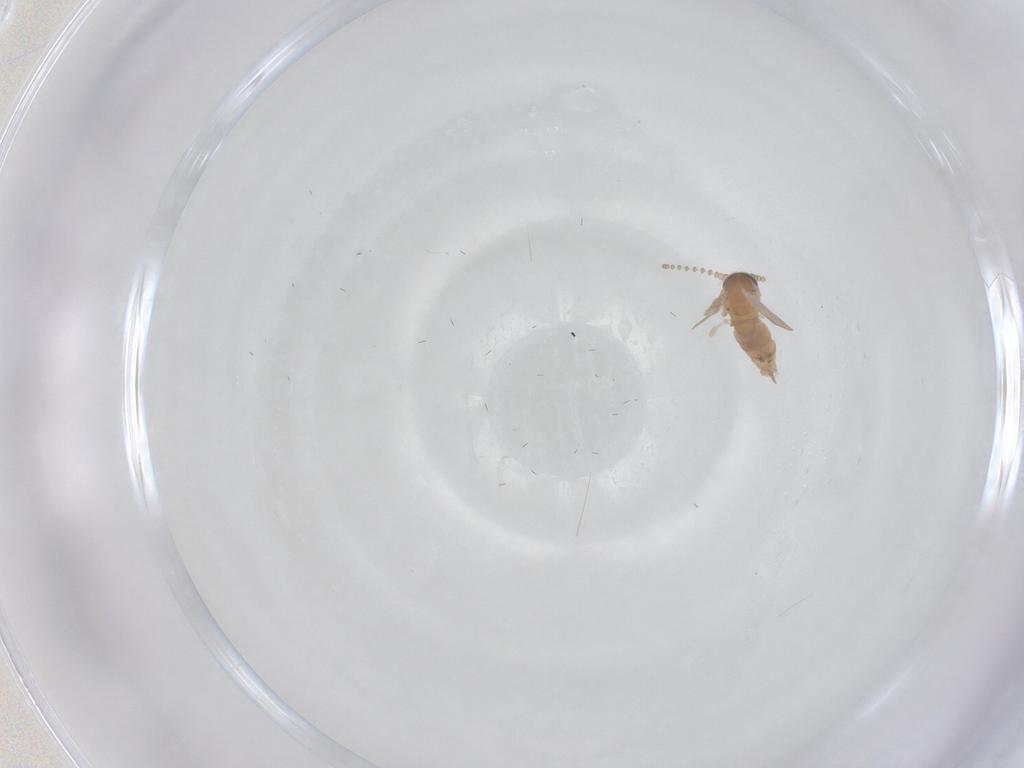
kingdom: Animalia
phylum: Arthropoda
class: Insecta
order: Diptera
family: Psychodidae
